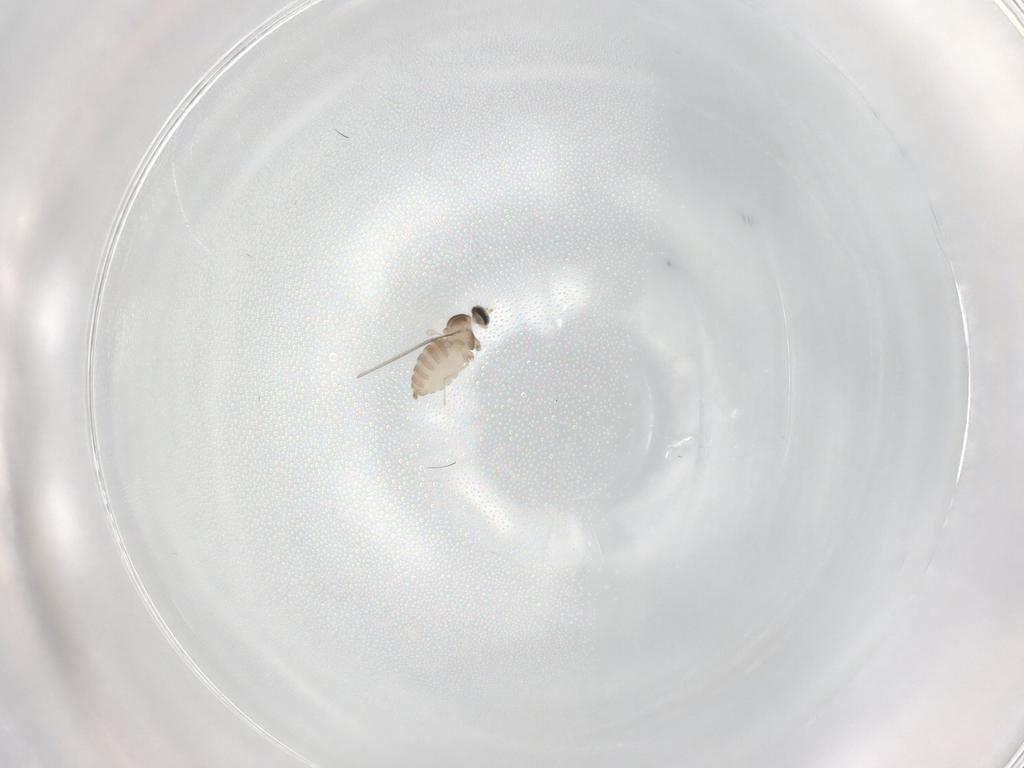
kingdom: Animalia
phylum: Arthropoda
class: Insecta
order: Diptera
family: Cecidomyiidae
